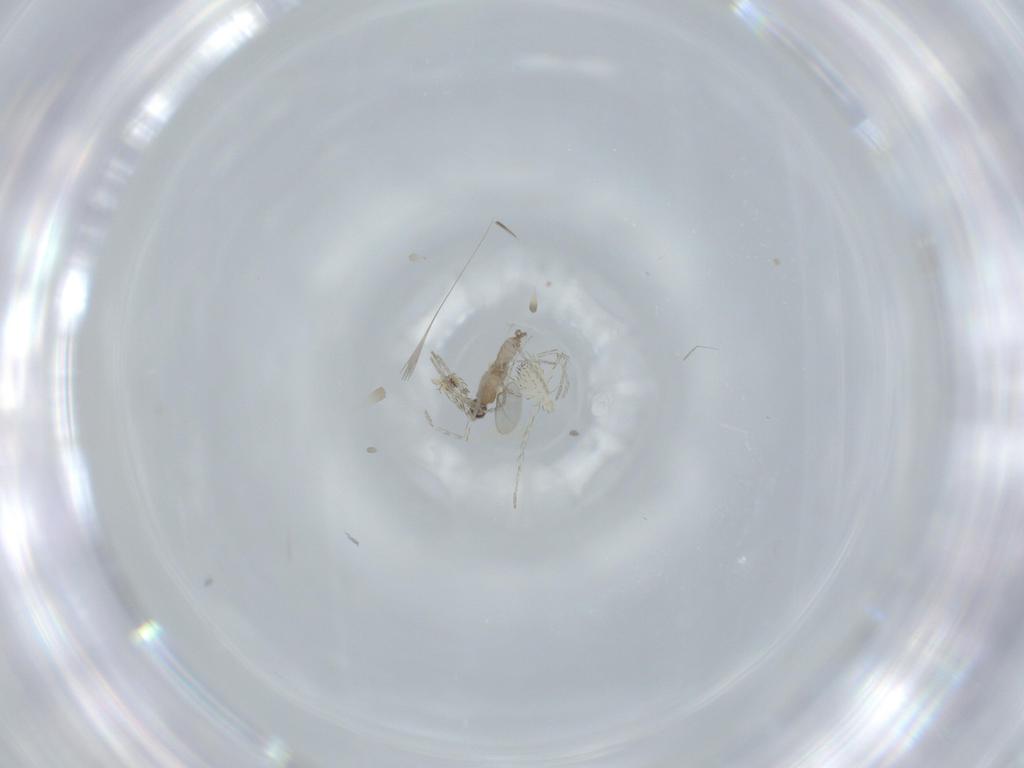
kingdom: Animalia
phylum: Arthropoda
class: Insecta
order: Diptera
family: Cecidomyiidae
